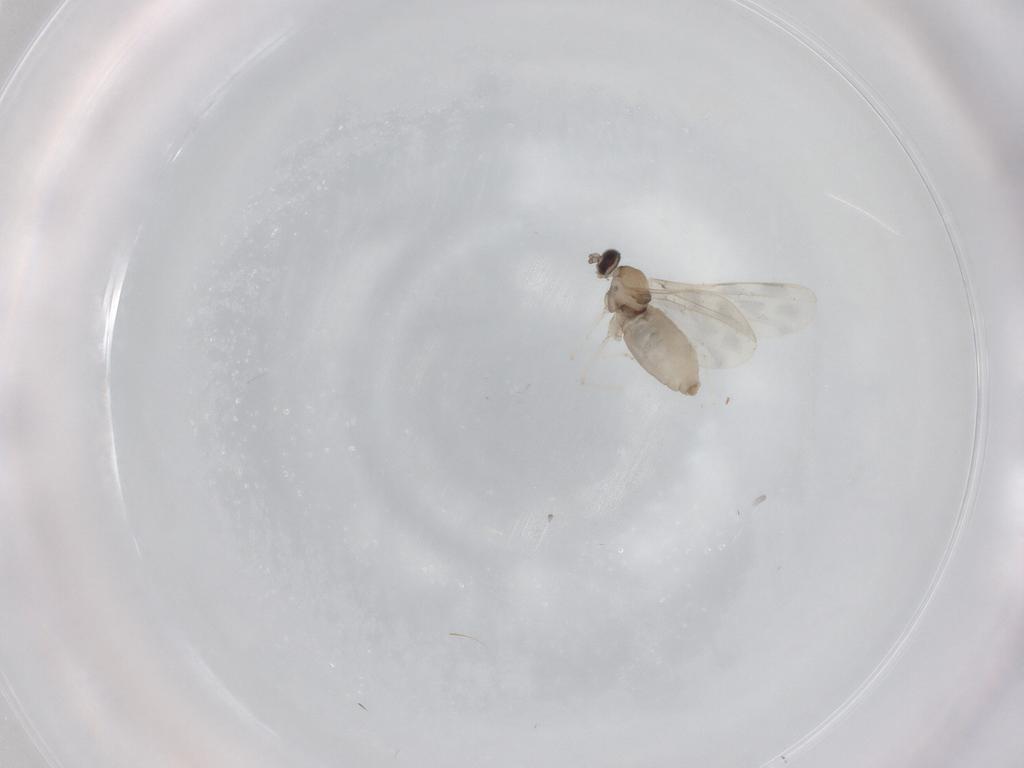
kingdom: Animalia
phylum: Arthropoda
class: Insecta
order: Diptera
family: Cecidomyiidae
